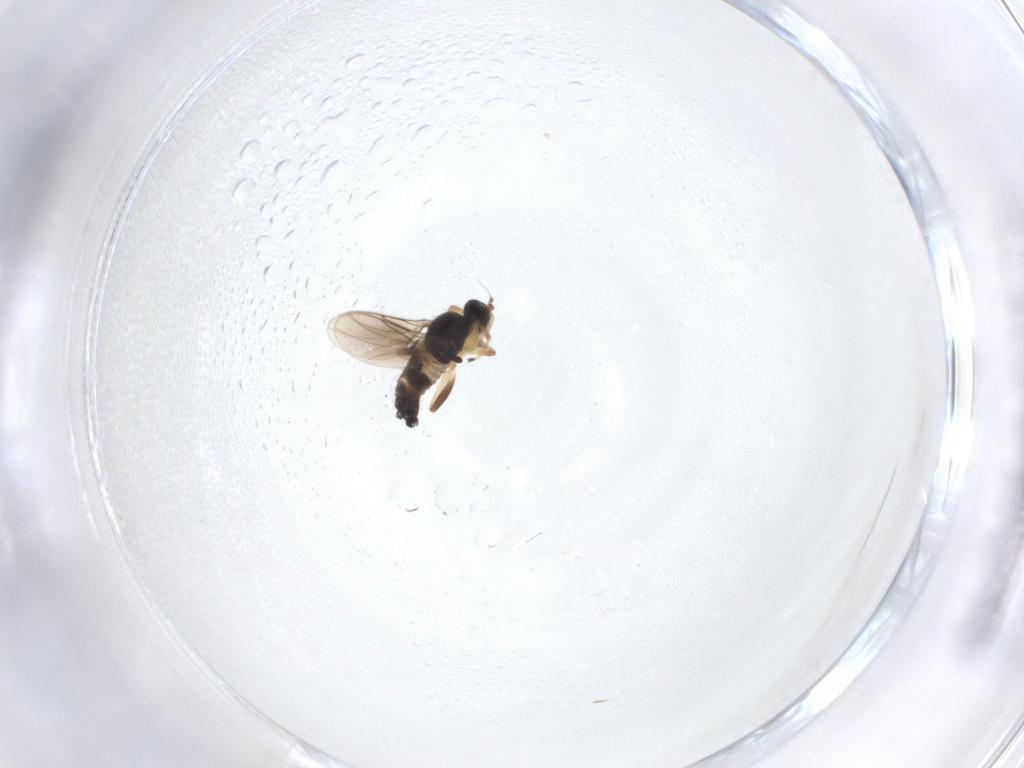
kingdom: Animalia
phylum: Arthropoda
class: Insecta
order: Diptera
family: Hybotidae
